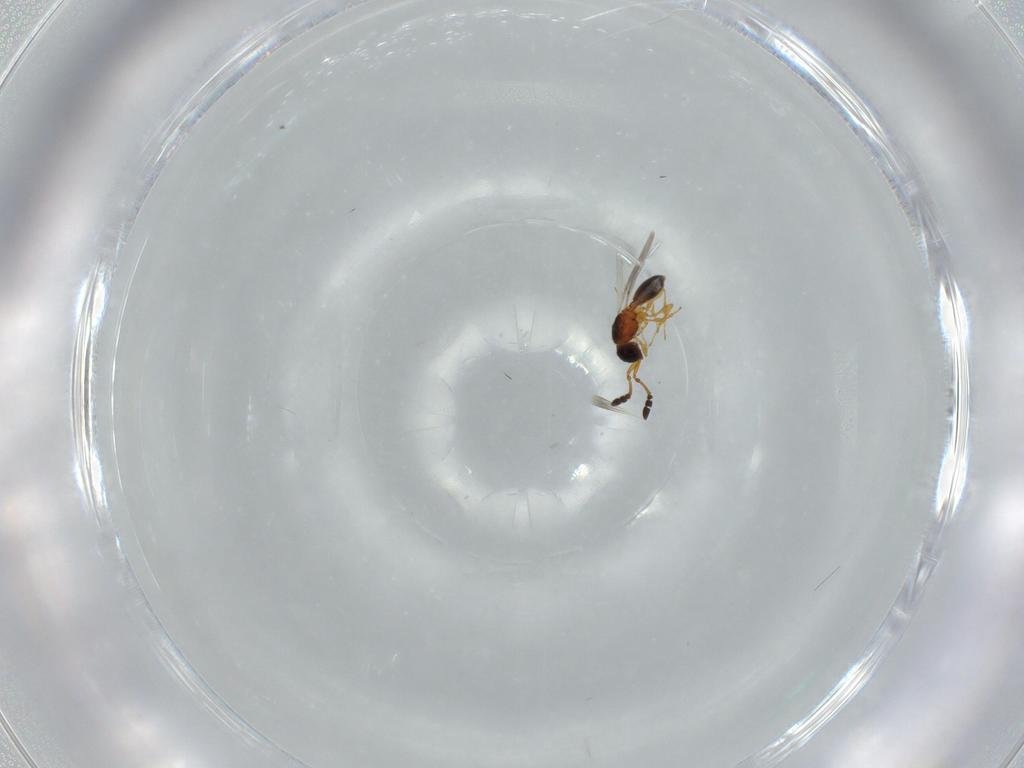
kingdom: Animalia
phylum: Arthropoda
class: Insecta
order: Hymenoptera
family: Diapriidae
